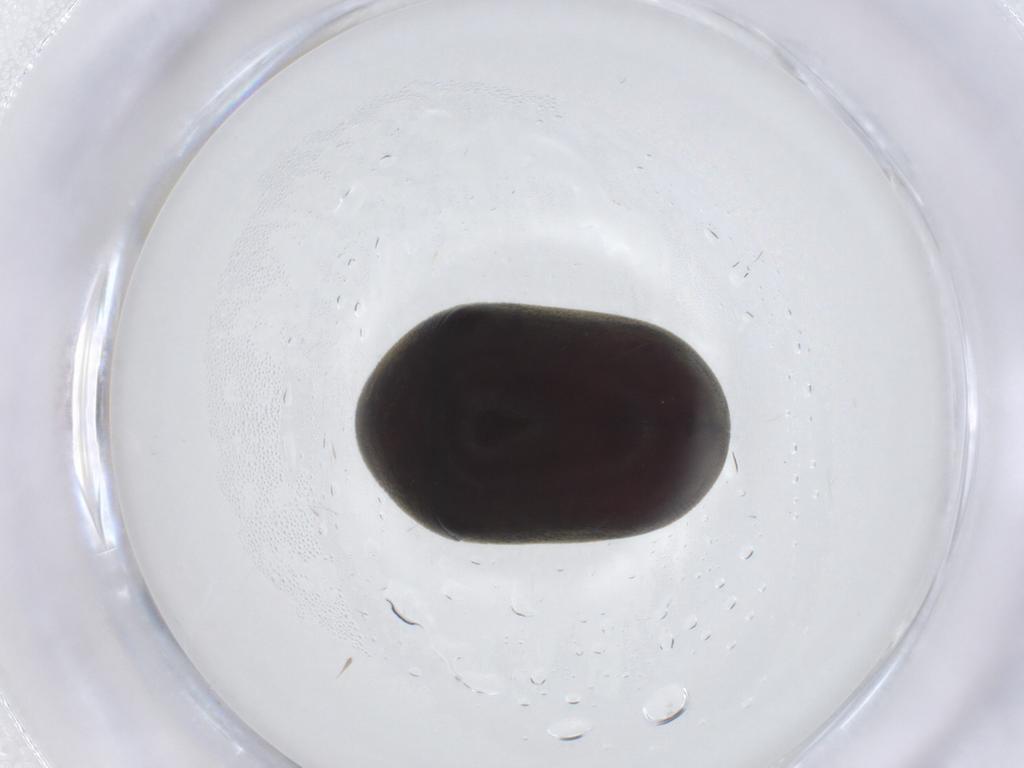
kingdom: Animalia
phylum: Arthropoda
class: Insecta
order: Coleoptera
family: Ptinidae
